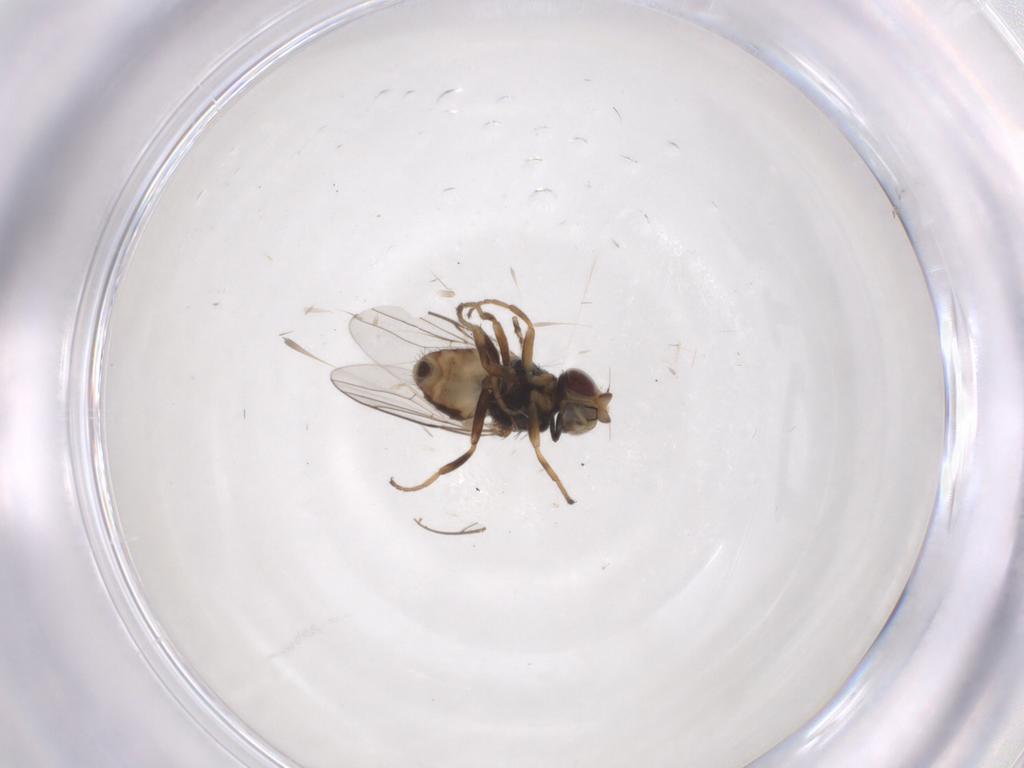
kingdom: Animalia
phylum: Arthropoda
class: Insecta
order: Diptera
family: Chloropidae
